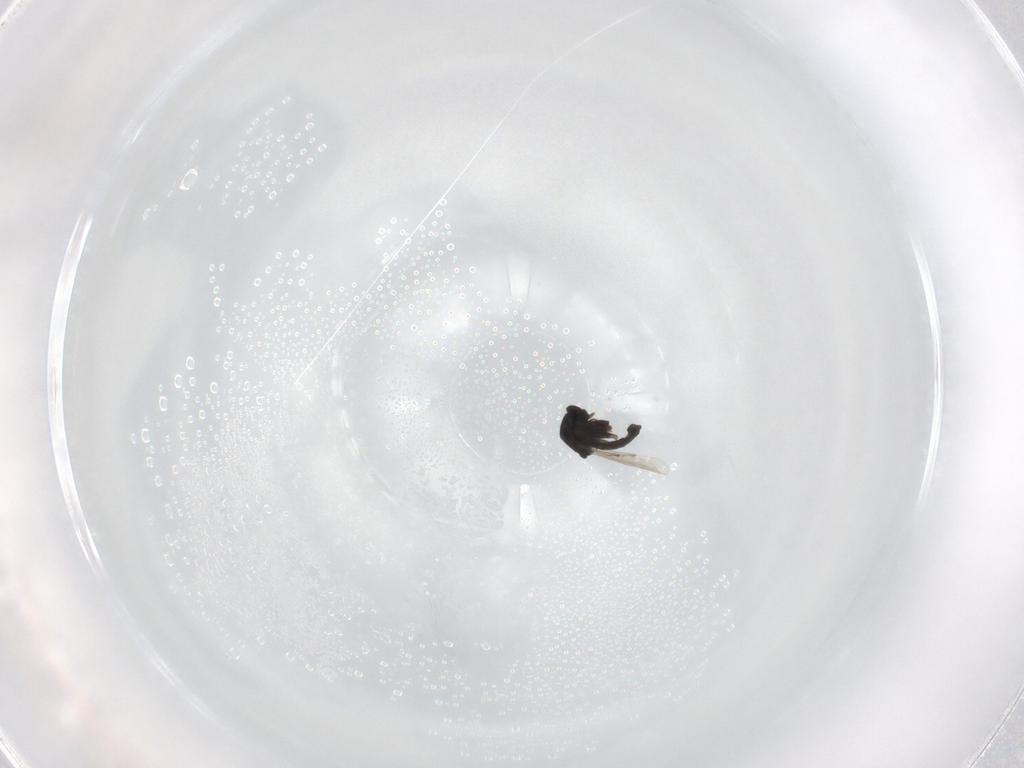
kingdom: Animalia
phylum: Arthropoda
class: Insecta
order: Diptera
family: Ceratopogonidae
